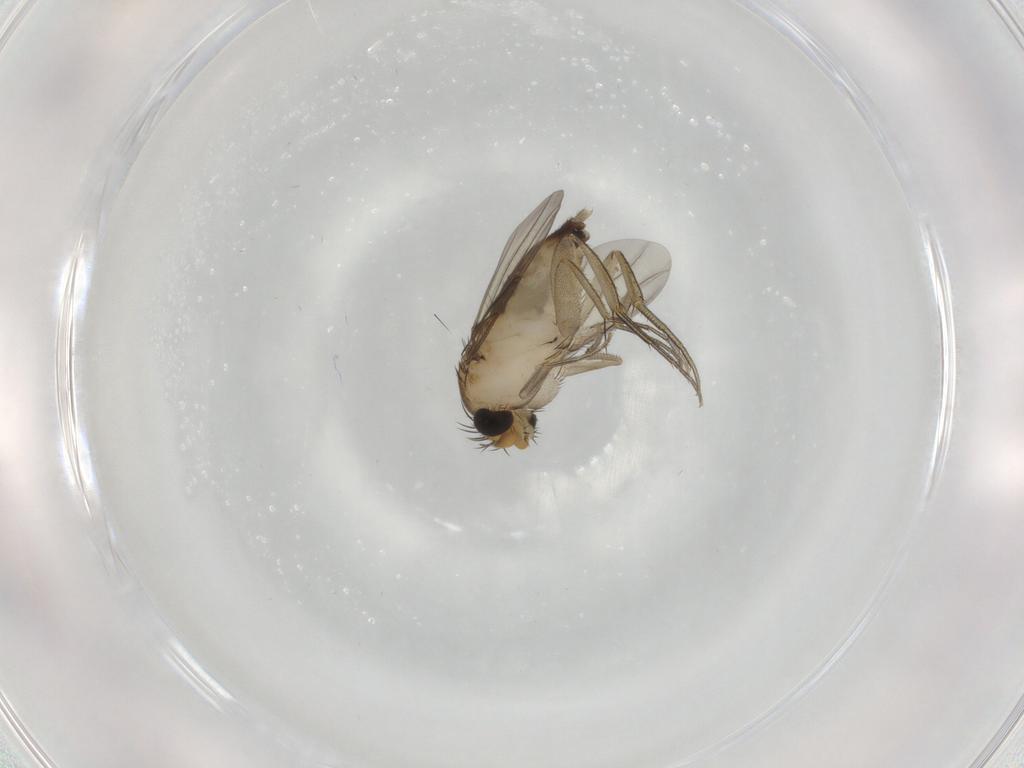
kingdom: Animalia
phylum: Arthropoda
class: Insecta
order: Diptera
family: Phoridae
